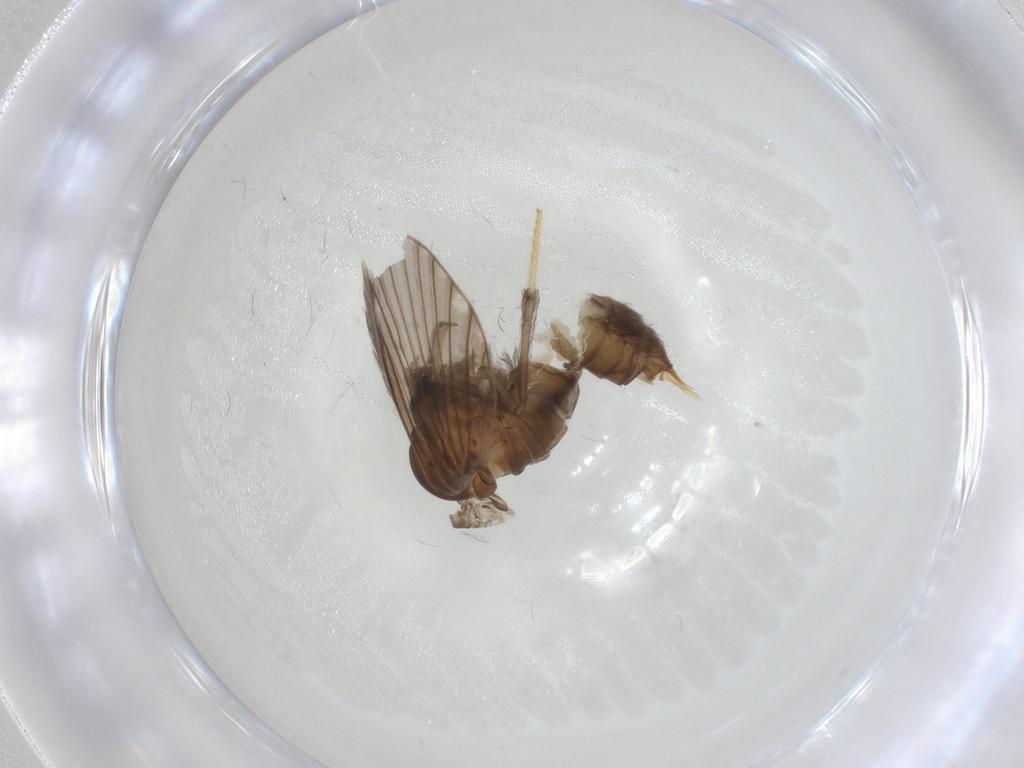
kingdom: Animalia
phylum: Arthropoda
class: Insecta
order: Diptera
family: Psychodidae
